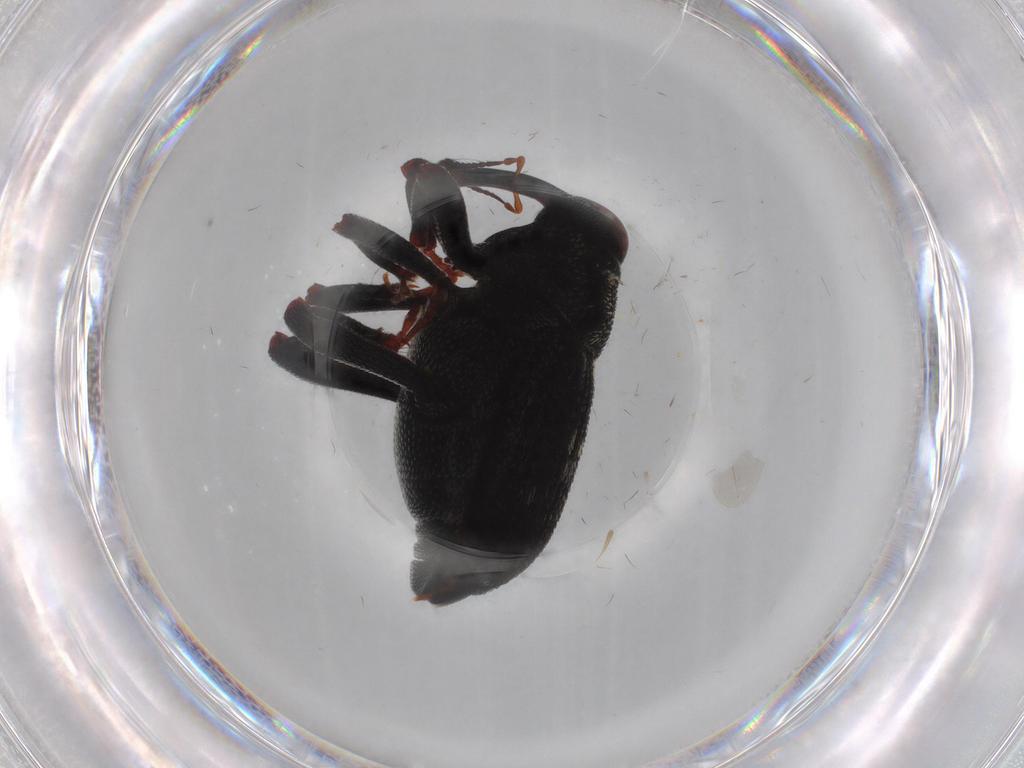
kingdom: Animalia
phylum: Arthropoda
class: Insecta
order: Coleoptera
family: Curculionidae
